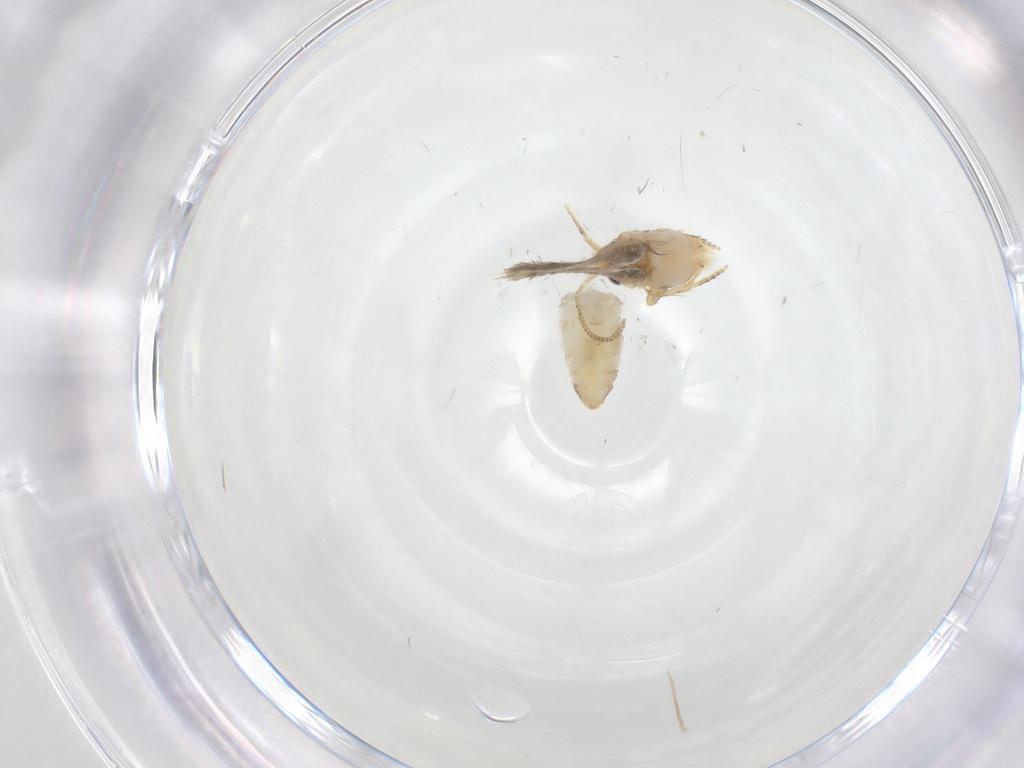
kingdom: Animalia
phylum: Arthropoda
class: Insecta
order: Lepidoptera
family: Nepticulidae
